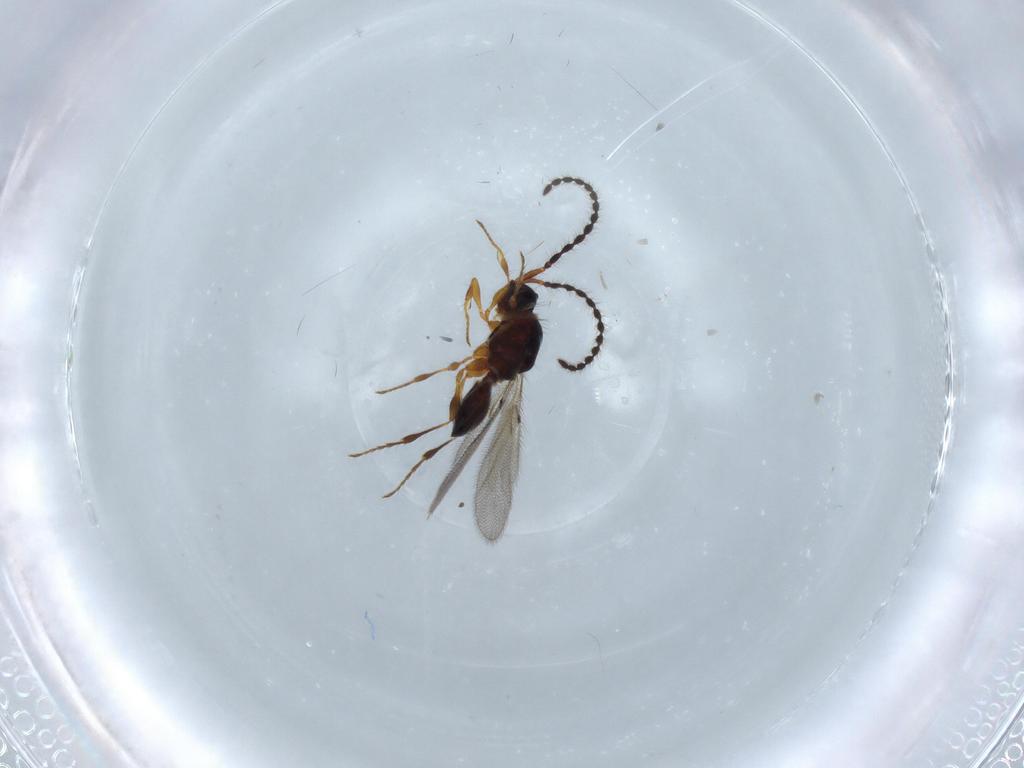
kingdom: Animalia
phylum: Arthropoda
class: Insecta
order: Hymenoptera
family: Diapriidae
